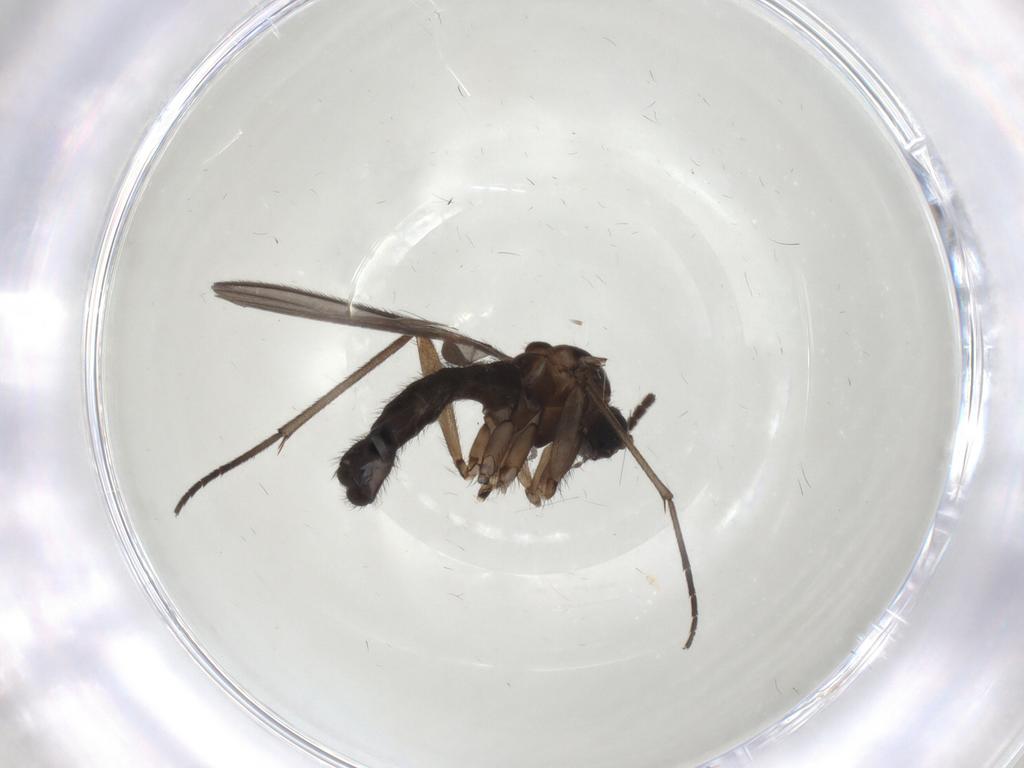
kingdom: Animalia
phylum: Arthropoda
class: Insecta
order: Diptera
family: Sciaridae
